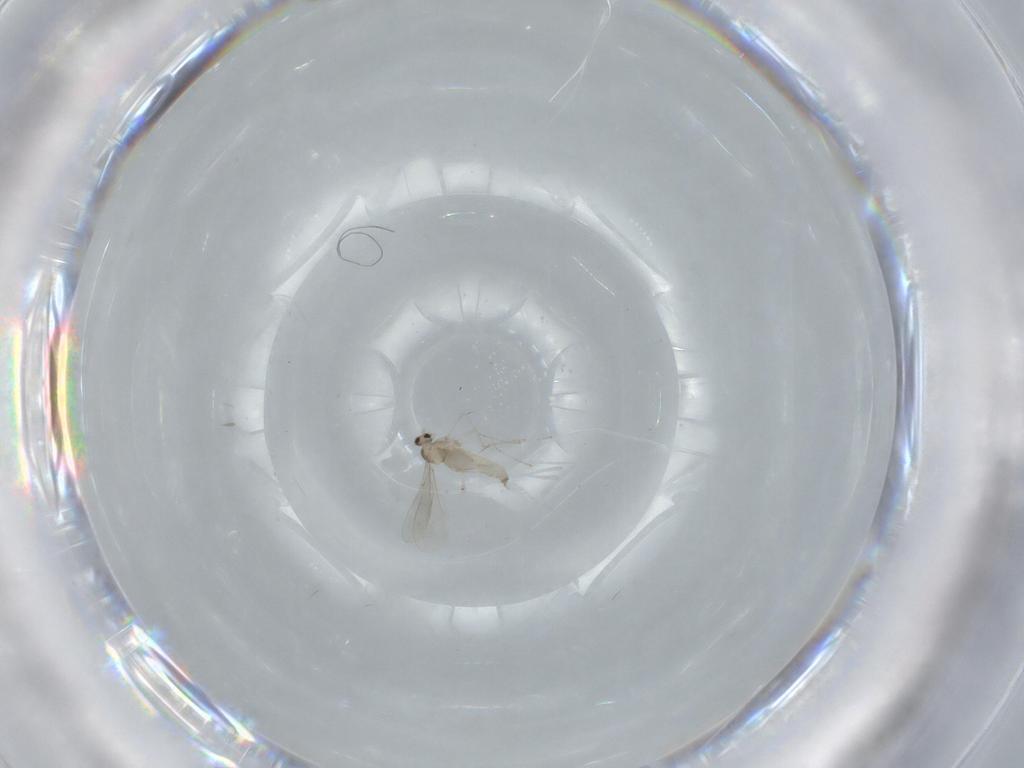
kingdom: Animalia
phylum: Arthropoda
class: Insecta
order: Diptera
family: Cecidomyiidae
